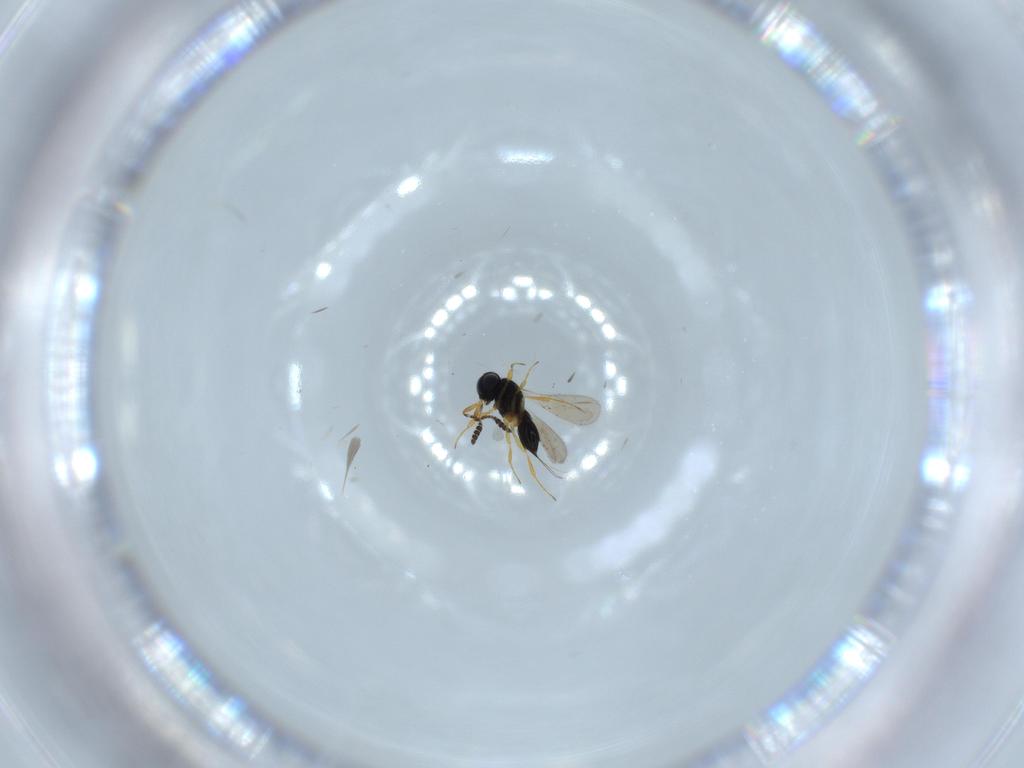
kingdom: Animalia
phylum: Arthropoda
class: Insecta
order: Hymenoptera
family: Scelionidae
